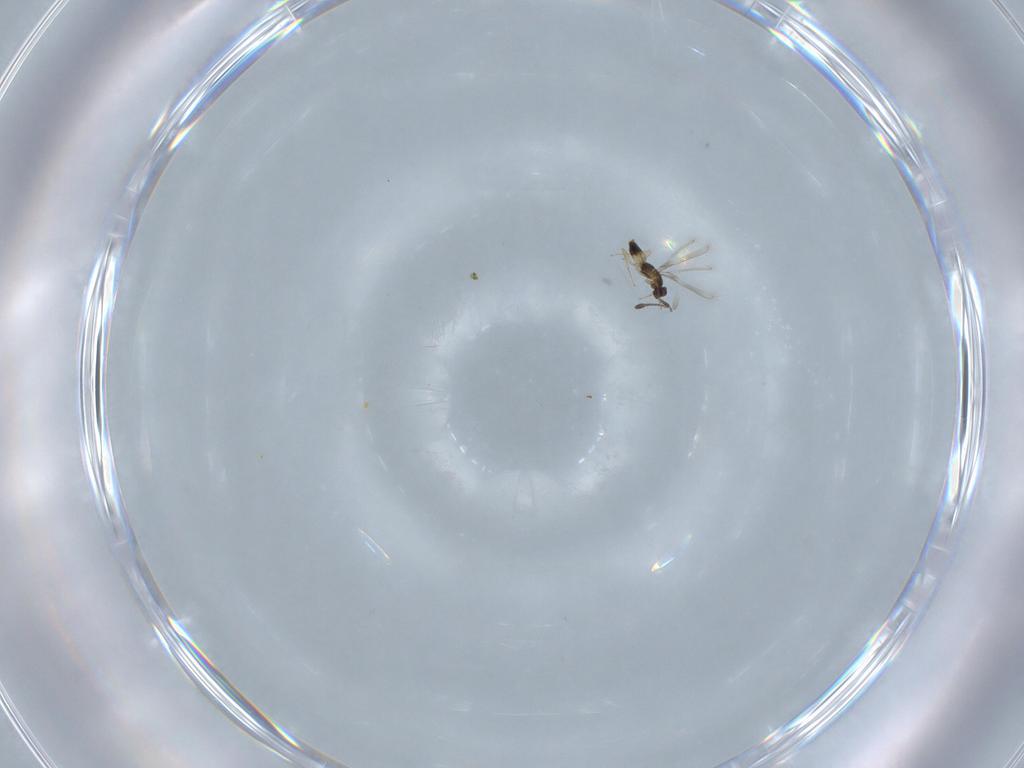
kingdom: Animalia
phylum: Arthropoda
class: Insecta
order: Hymenoptera
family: Mymaridae
